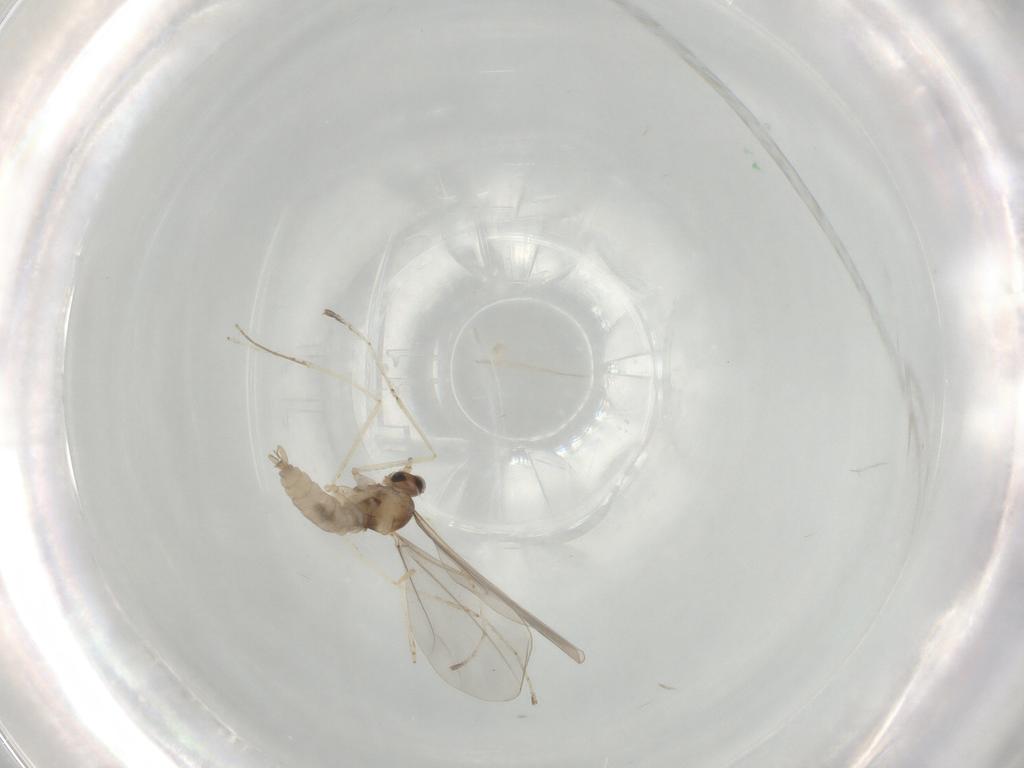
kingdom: Animalia
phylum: Arthropoda
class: Insecta
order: Diptera
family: Cecidomyiidae
